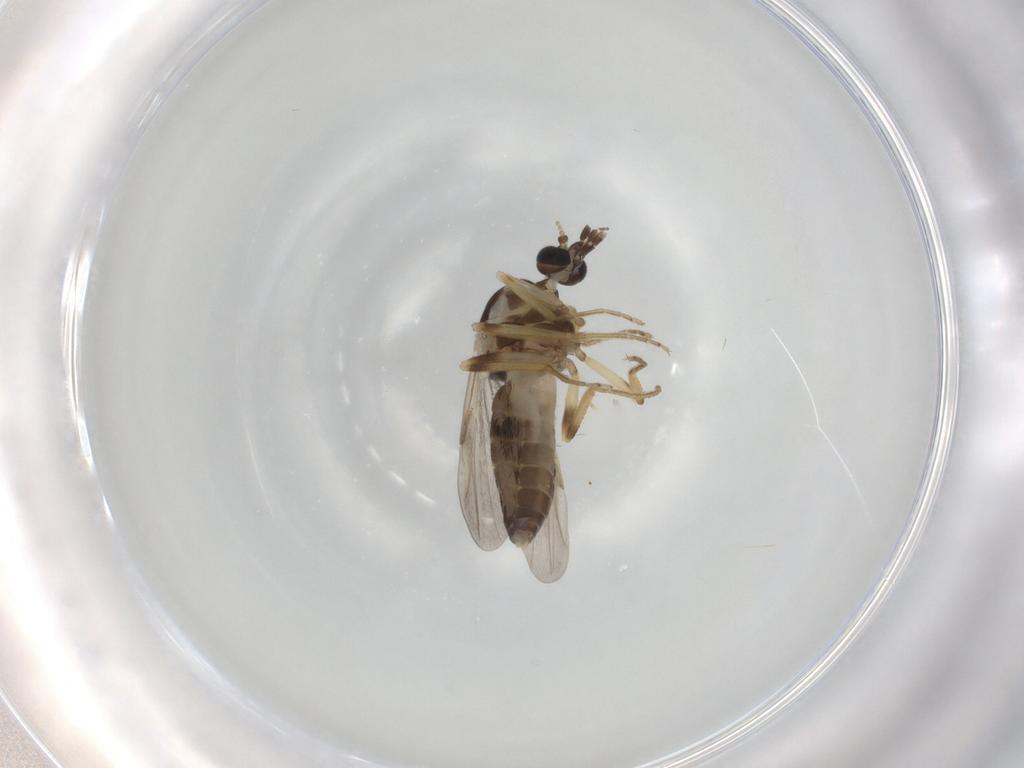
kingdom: Animalia
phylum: Arthropoda
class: Insecta
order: Diptera
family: Ceratopogonidae
